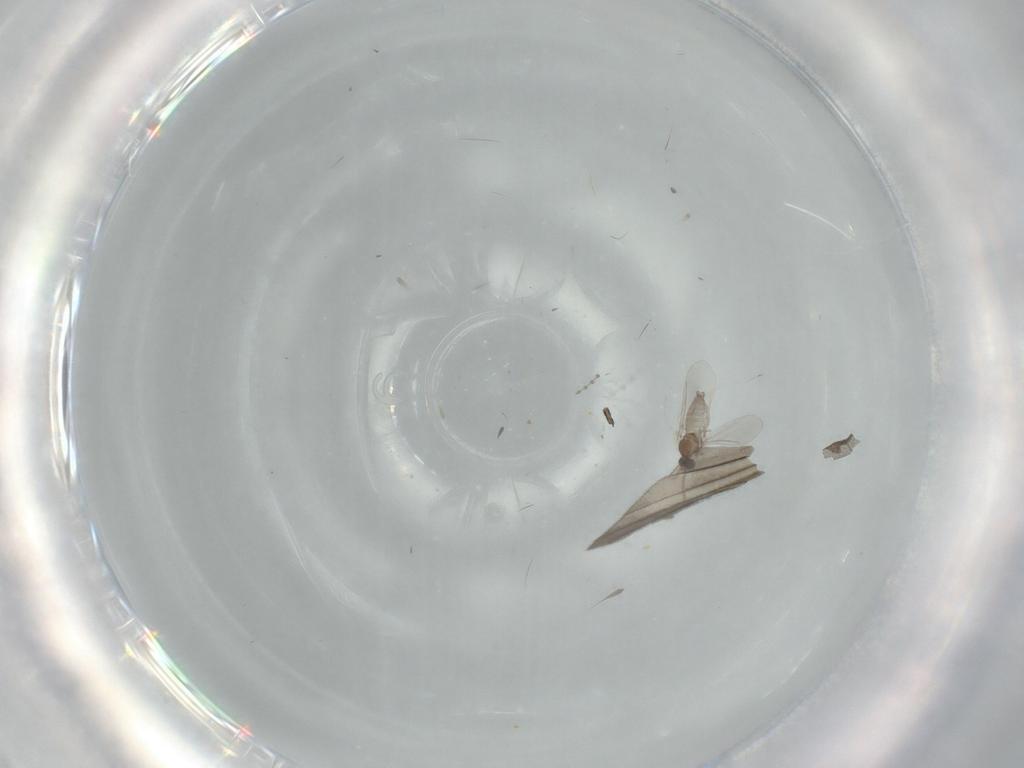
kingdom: Animalia
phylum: Arthropoda
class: Insecta
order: Diptera
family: Cecidomyiidae
